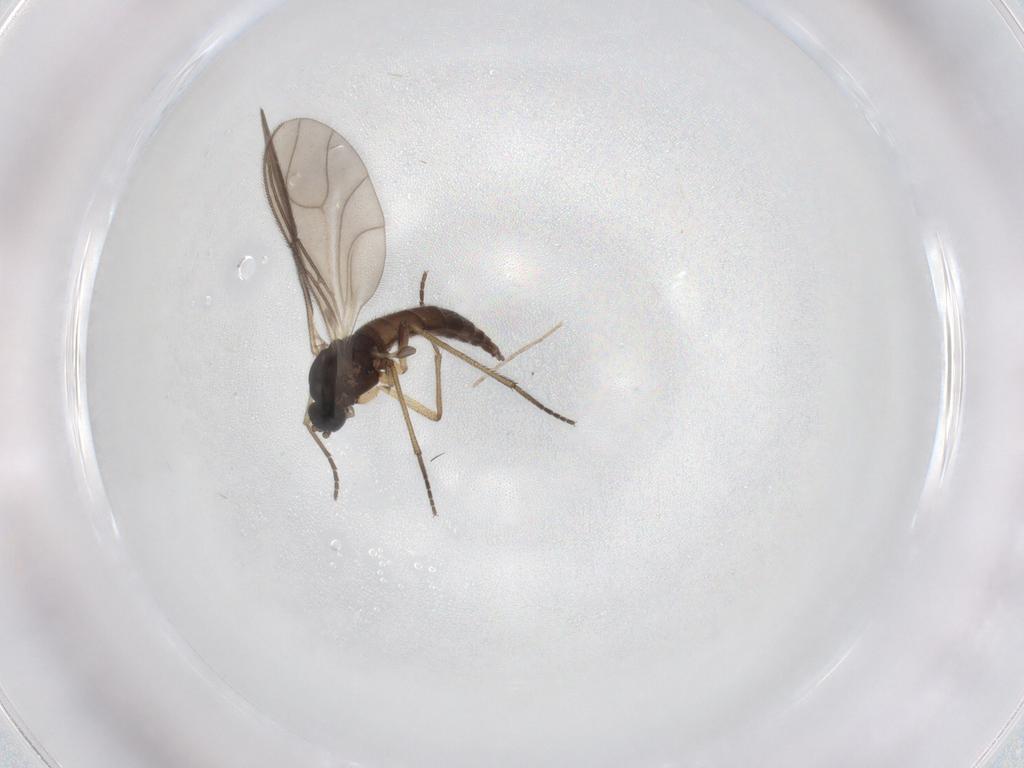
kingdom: Animalia
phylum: Arthropoda
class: Insecta
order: Diptera
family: Sciaridae
